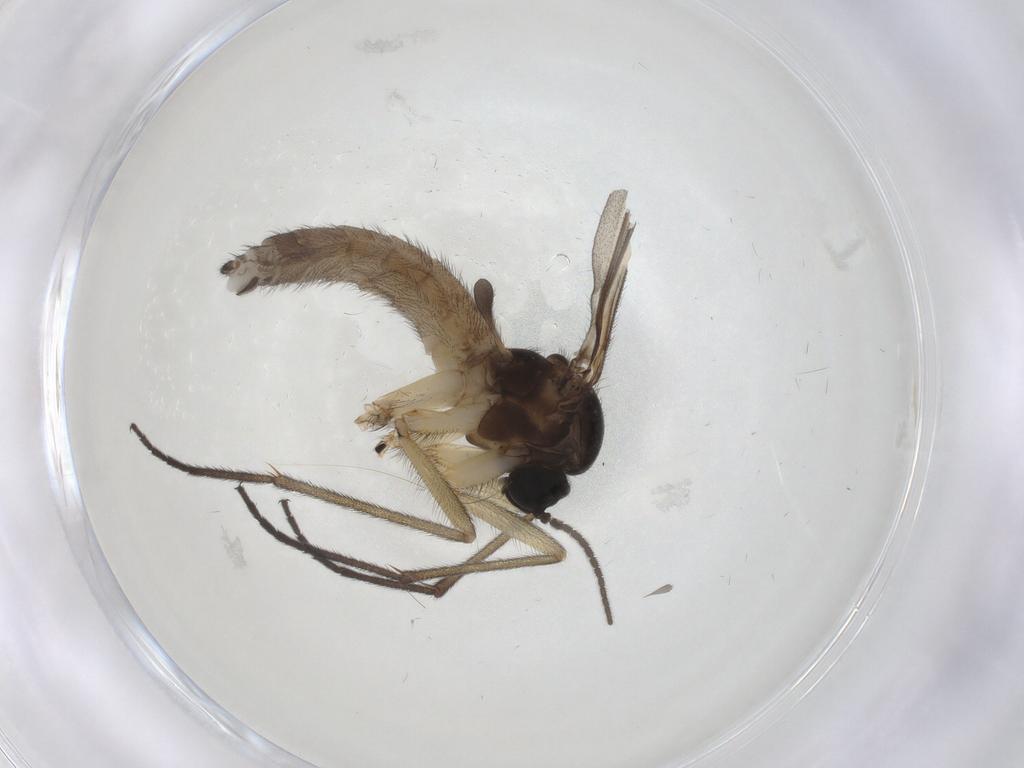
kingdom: Animalia
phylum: Arthropoda
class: Insecta
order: Diptera
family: Sciaridae
